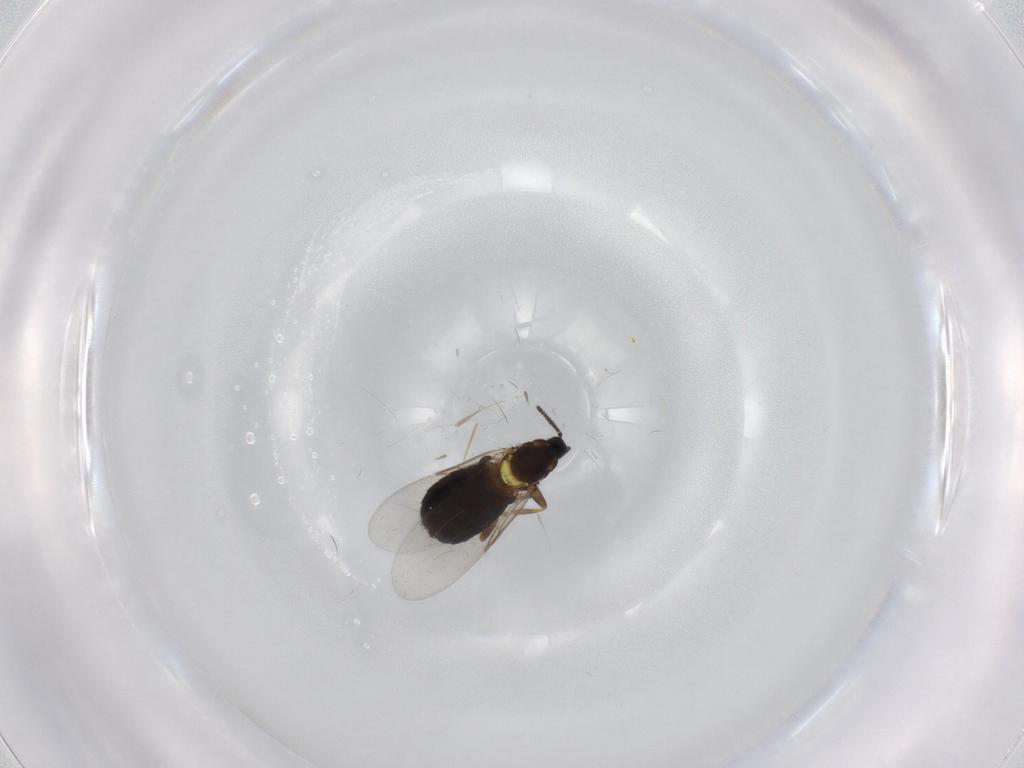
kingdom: Animalia
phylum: Arthropoda
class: Insecta
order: Diptera
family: Scatopsidae
